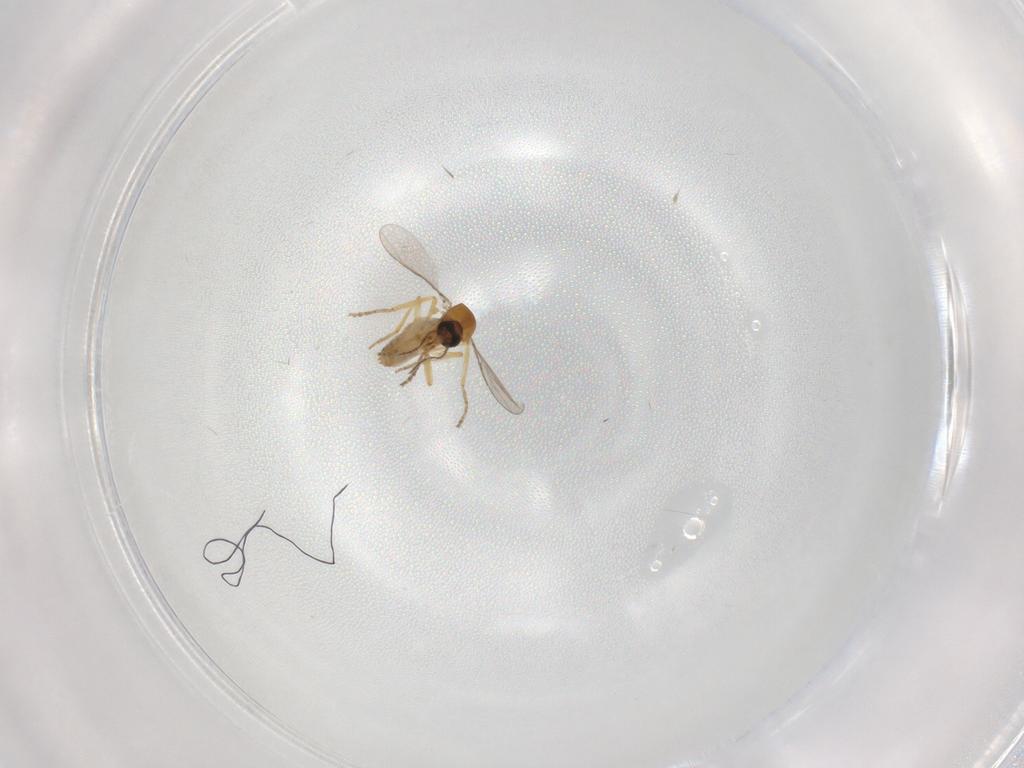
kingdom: Animalia
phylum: Arthropoda
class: Insecta
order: Diptera
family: Ceratopogonidae
